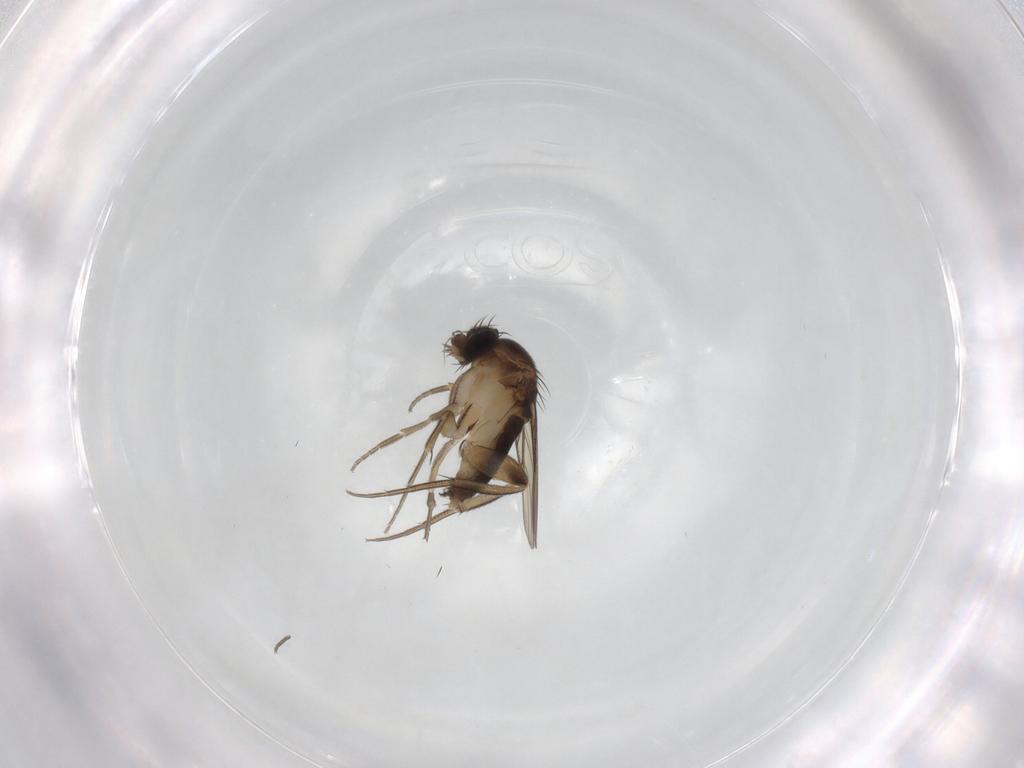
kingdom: Animalia
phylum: Arthropoda
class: Insecta
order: Diptera
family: Phoridae
